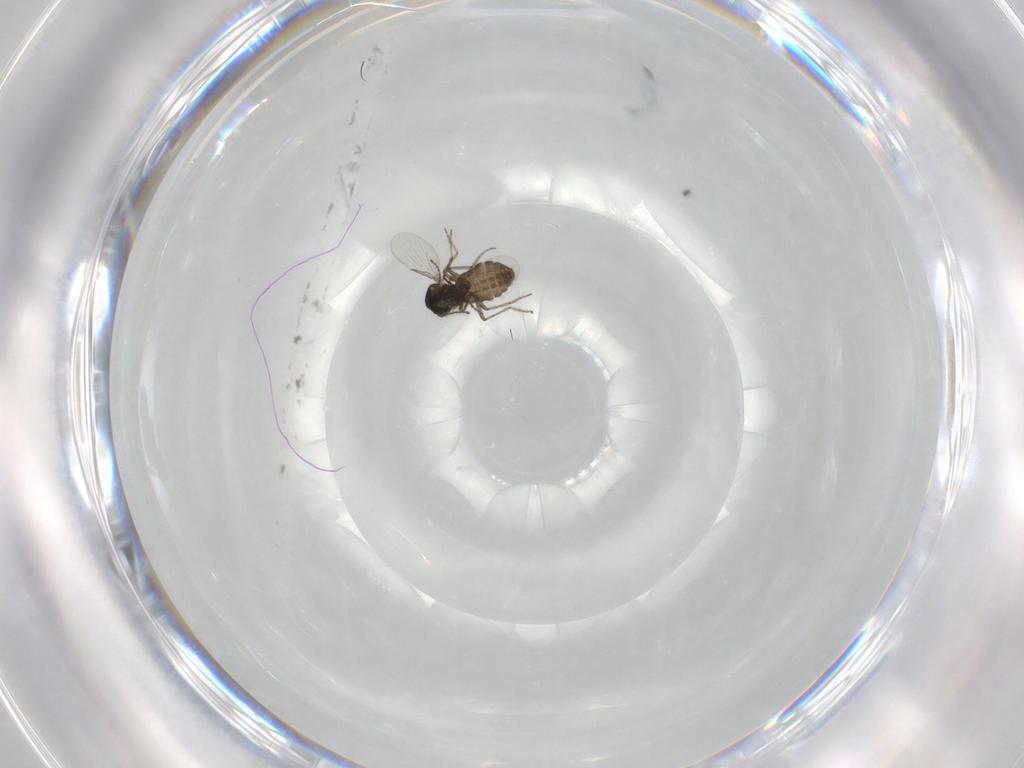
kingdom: Animalia
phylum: Arthropoda
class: Insecta
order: Diptera
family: Ceratopogonidae
